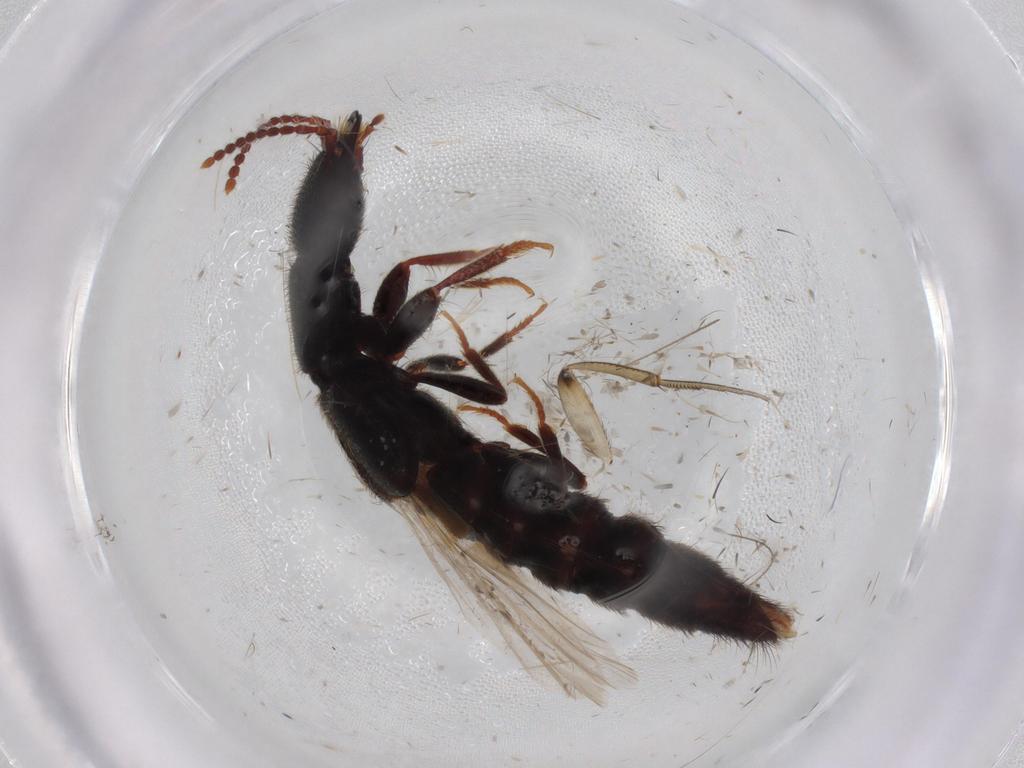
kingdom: Animalia
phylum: Arthropoda
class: Insecta
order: Coleoptera
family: Staphylinidae
